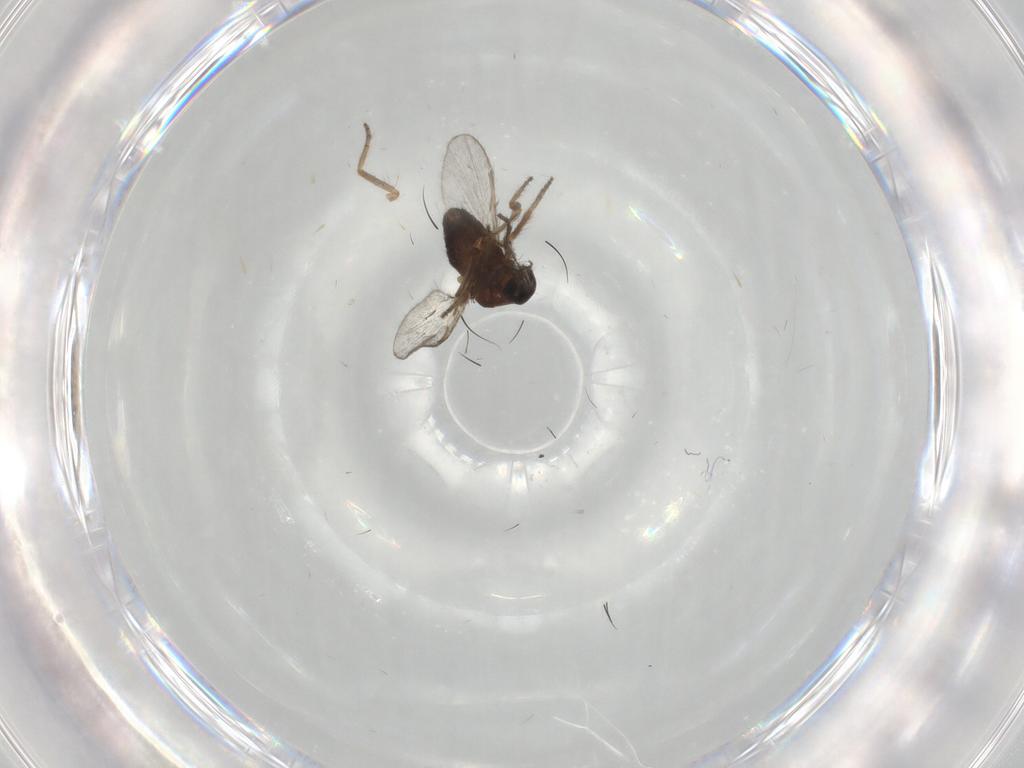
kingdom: Animalia
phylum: Arthropoda
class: Insecta
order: Diptera
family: Ceratopogonidae
